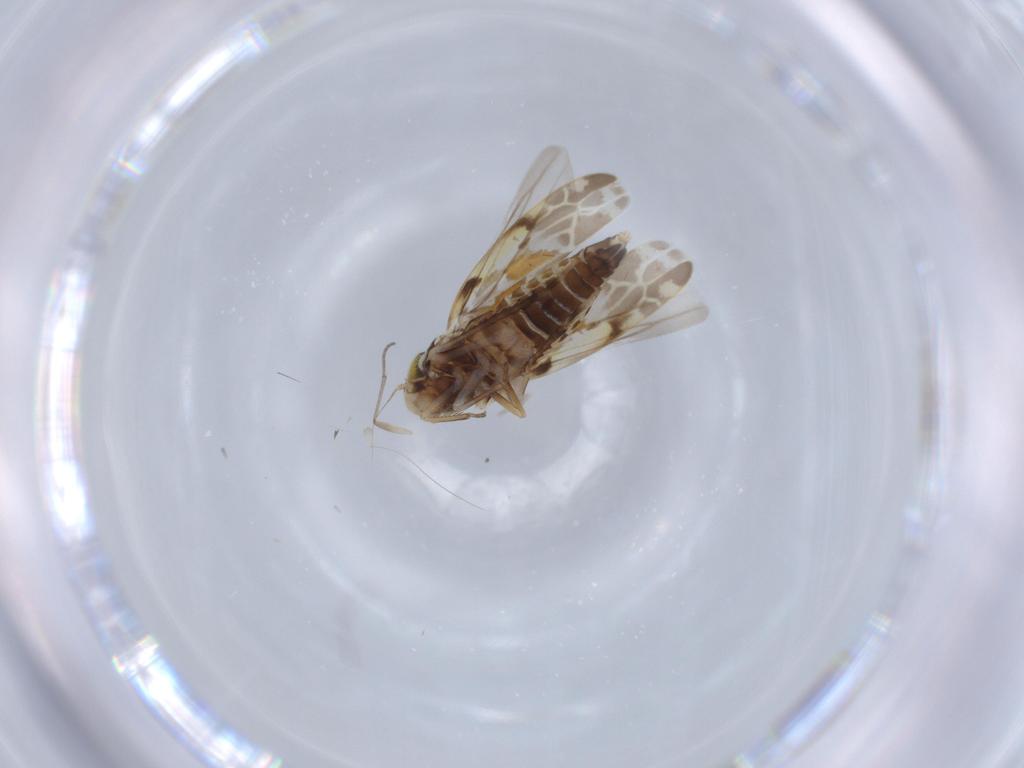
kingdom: Animalia
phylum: Arthropoda
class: Insecta
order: Hemiptera
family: Cicadellidae
